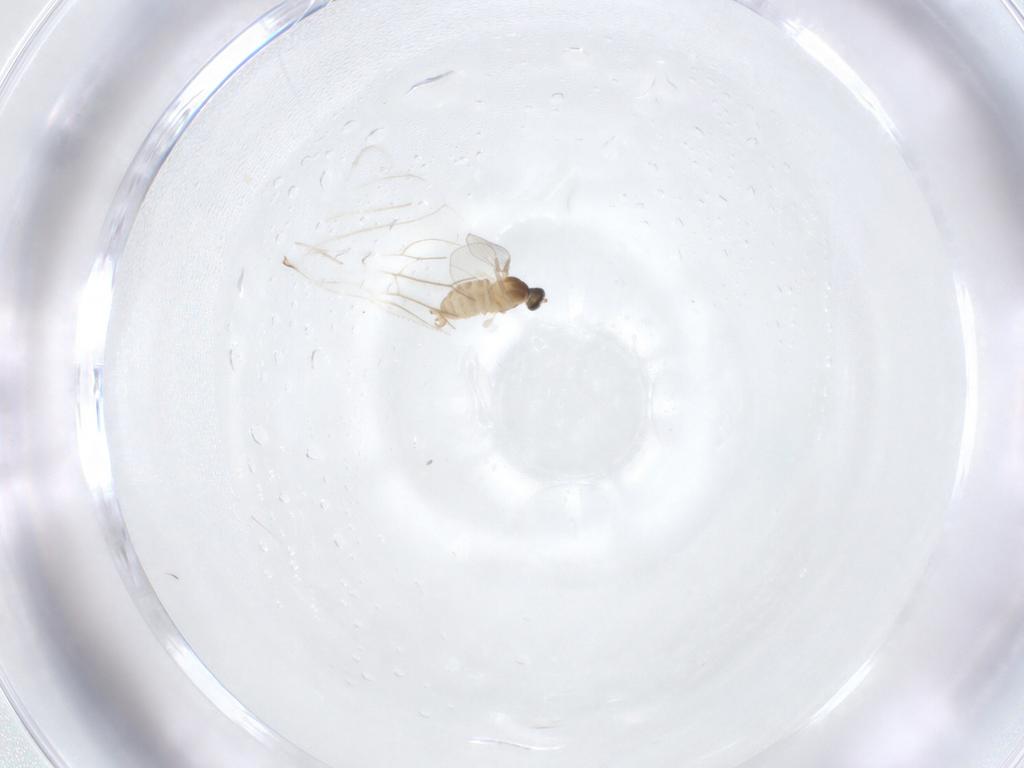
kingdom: Animalia
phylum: Arthropoda
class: Insecta
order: Diptera
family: Cecidomyiidae
